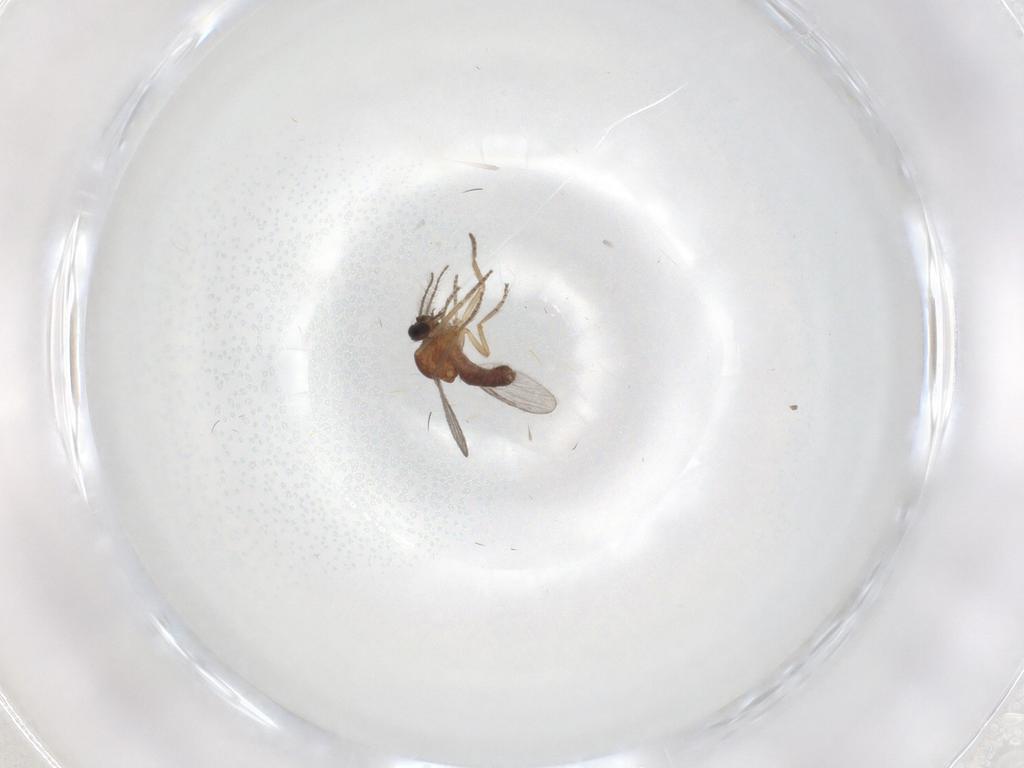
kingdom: Animalia
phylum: Arthropoda
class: Insecta
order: Diptera
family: Ceratopogonidae
